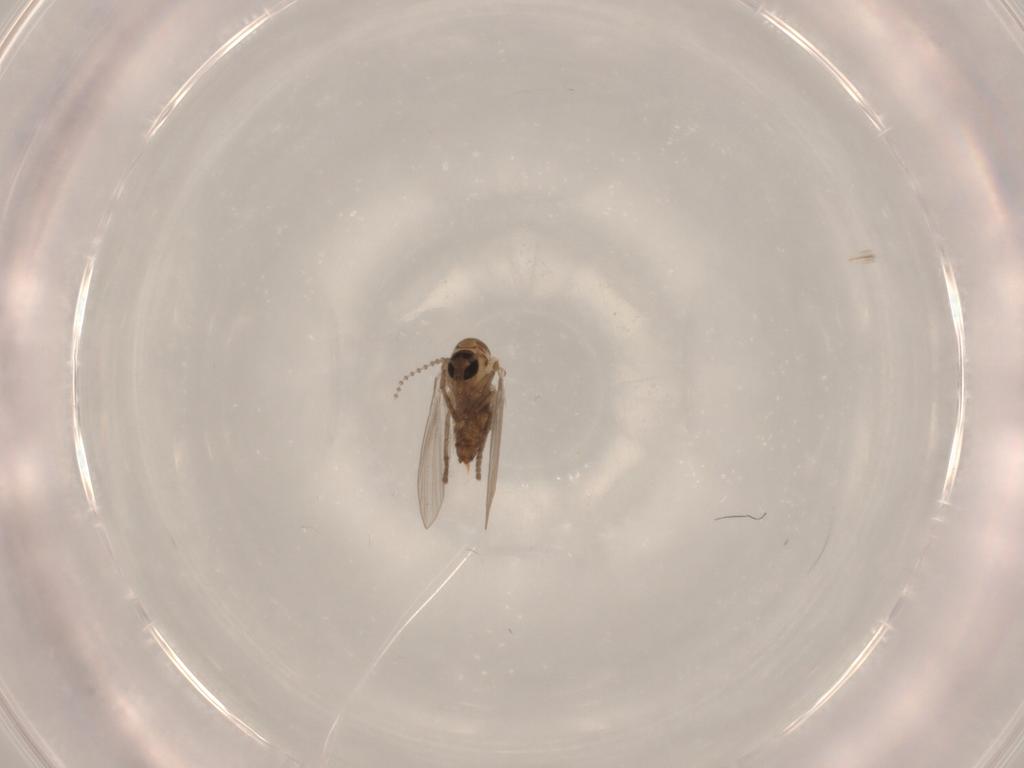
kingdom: Animalia
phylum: Arthropoda
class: Insecta
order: Diptera
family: Psychodidae
